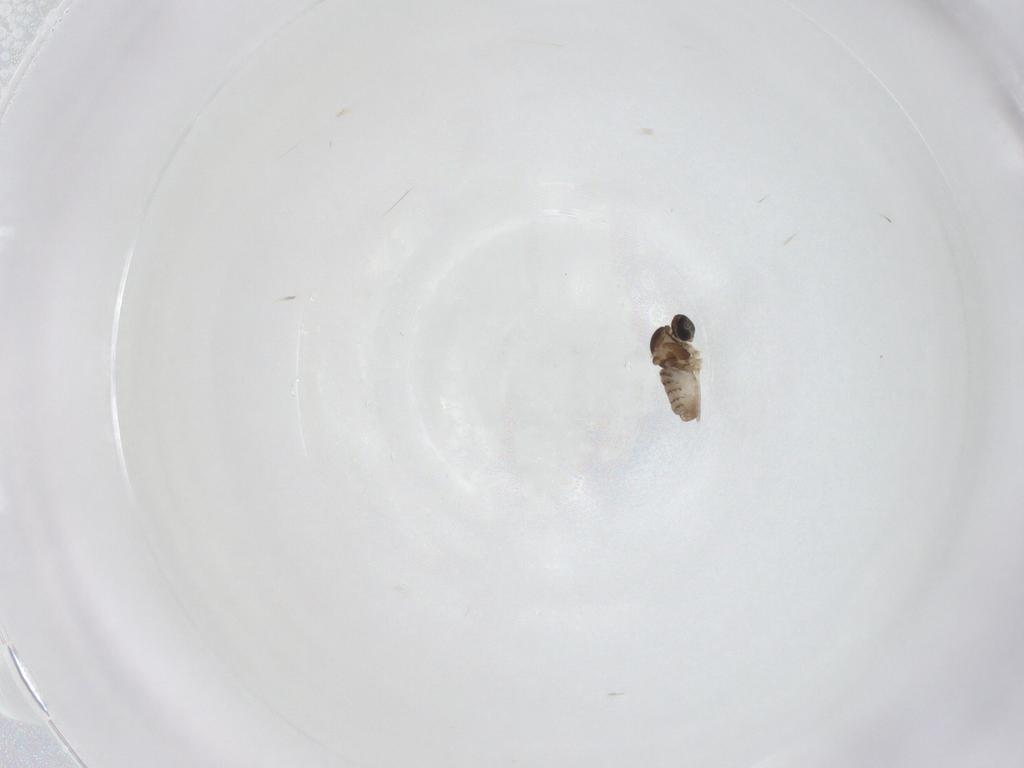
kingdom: Animalia
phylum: Arthropoda
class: Insecta
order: Diptera
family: Cecidomyiidae
